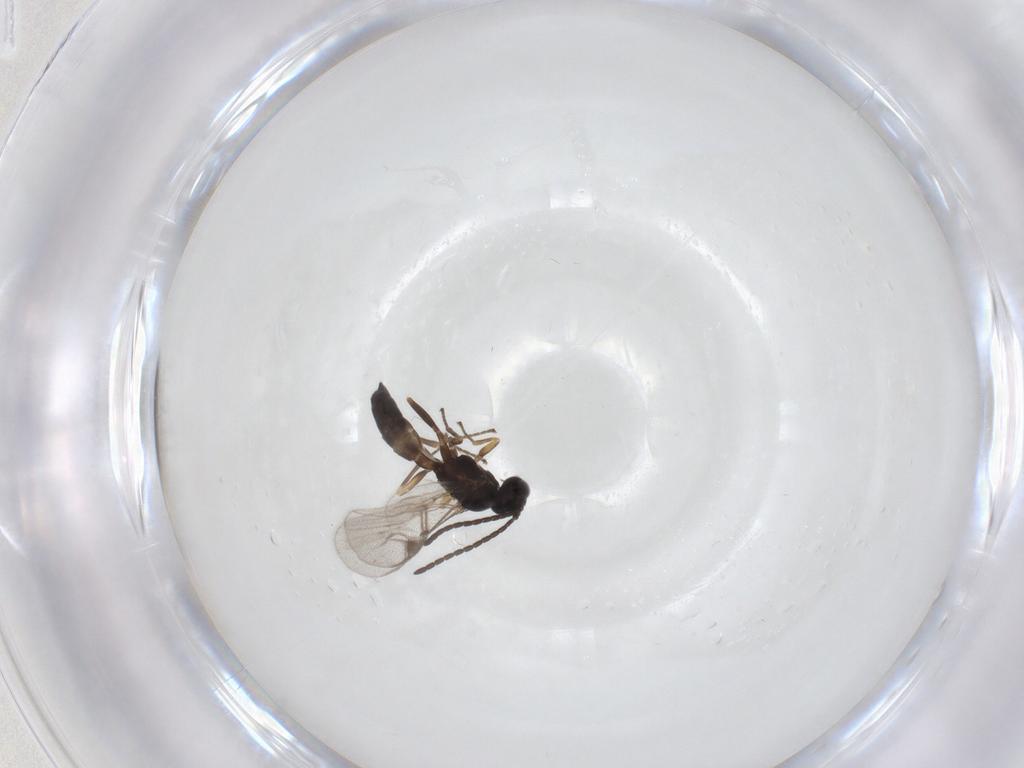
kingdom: Animalia
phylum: Arthropoda
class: Insecta
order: Hymenoptera
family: Braconidae
